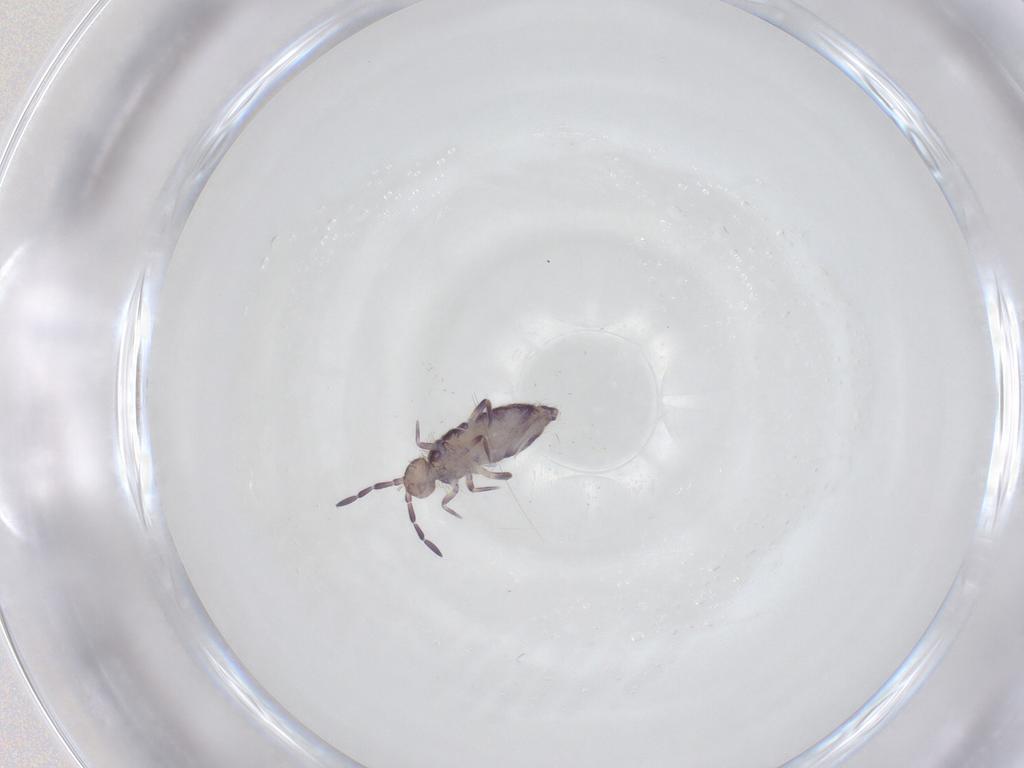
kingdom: Animalia
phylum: Arthropoda
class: Collembola
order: Entomobryomorpha
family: Entomobryidae
